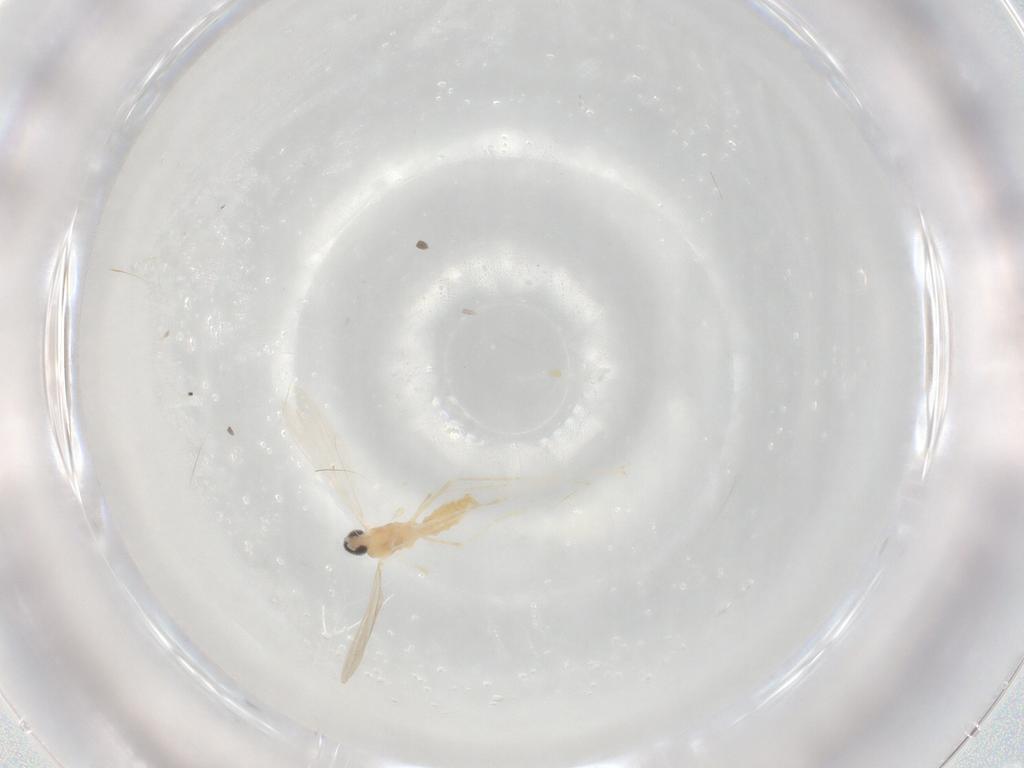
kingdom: Animalia
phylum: Arthropoda
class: Insecta
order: Diptera
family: Cecidomyiidae
